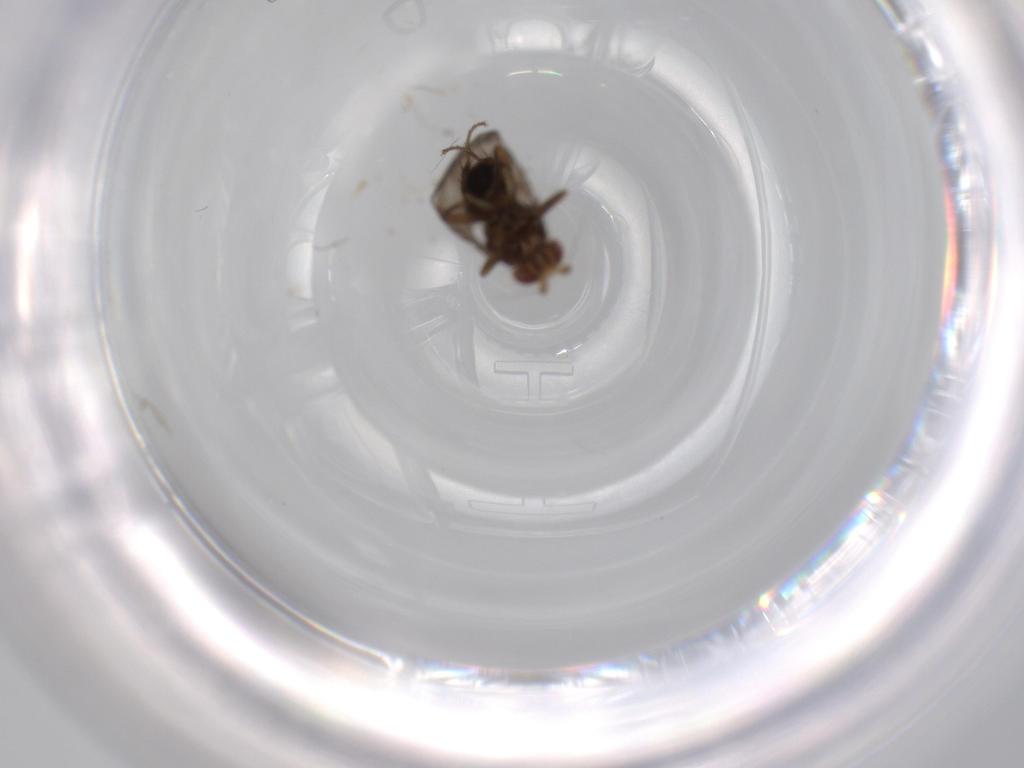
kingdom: Animalia
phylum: Arthropoda
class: Insecta
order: Diptera
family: Sphaeroceridae
